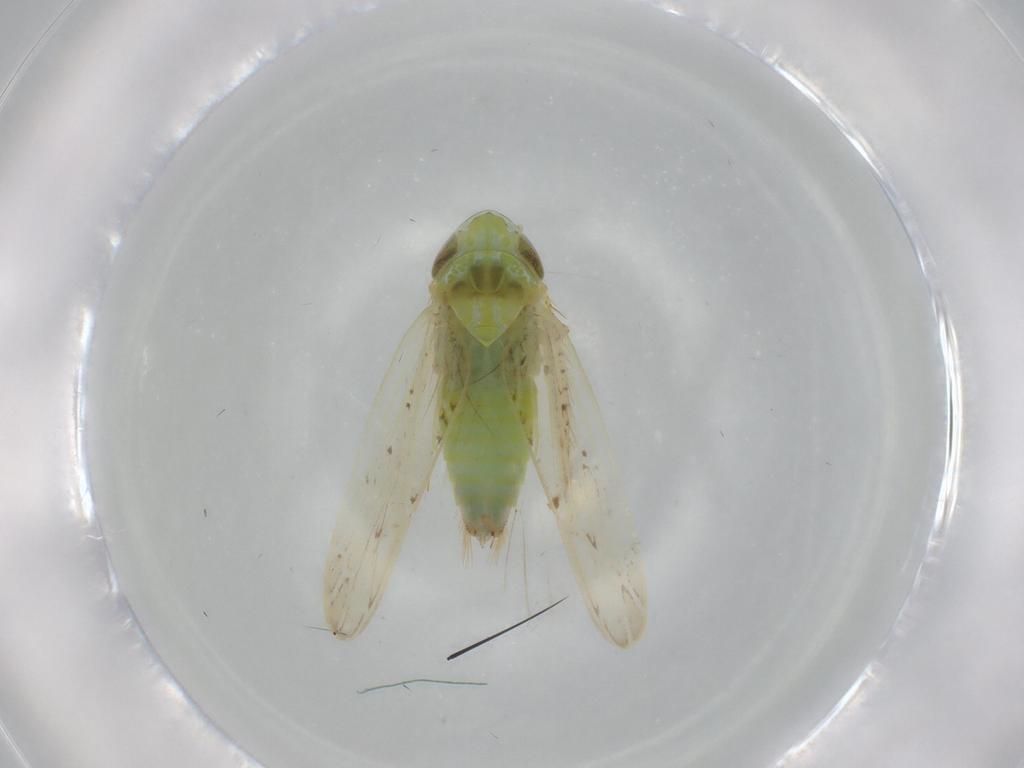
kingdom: Animalia
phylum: Arthropoda
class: Insecta
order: Hemiptera
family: Cicadellidae
